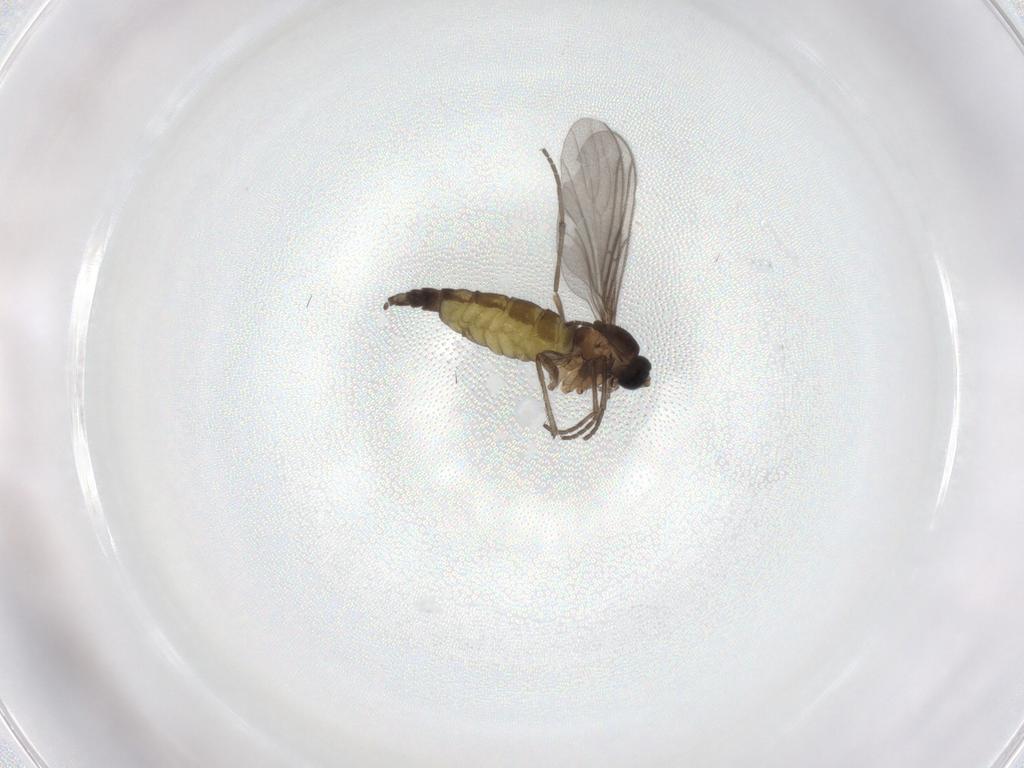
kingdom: Animalia
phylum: Arthropoda
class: Insecta
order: Diptera
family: Sciaridae
